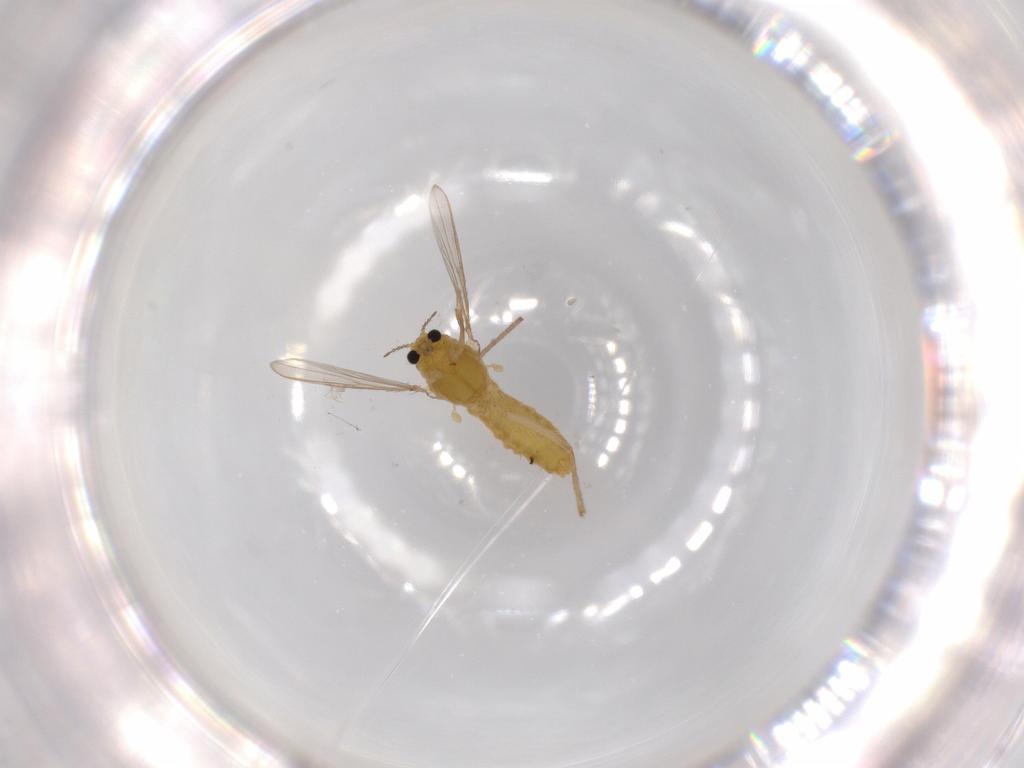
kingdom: Animalia
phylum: Arthropoda
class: Insecta
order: Diptera
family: Chironomidae
